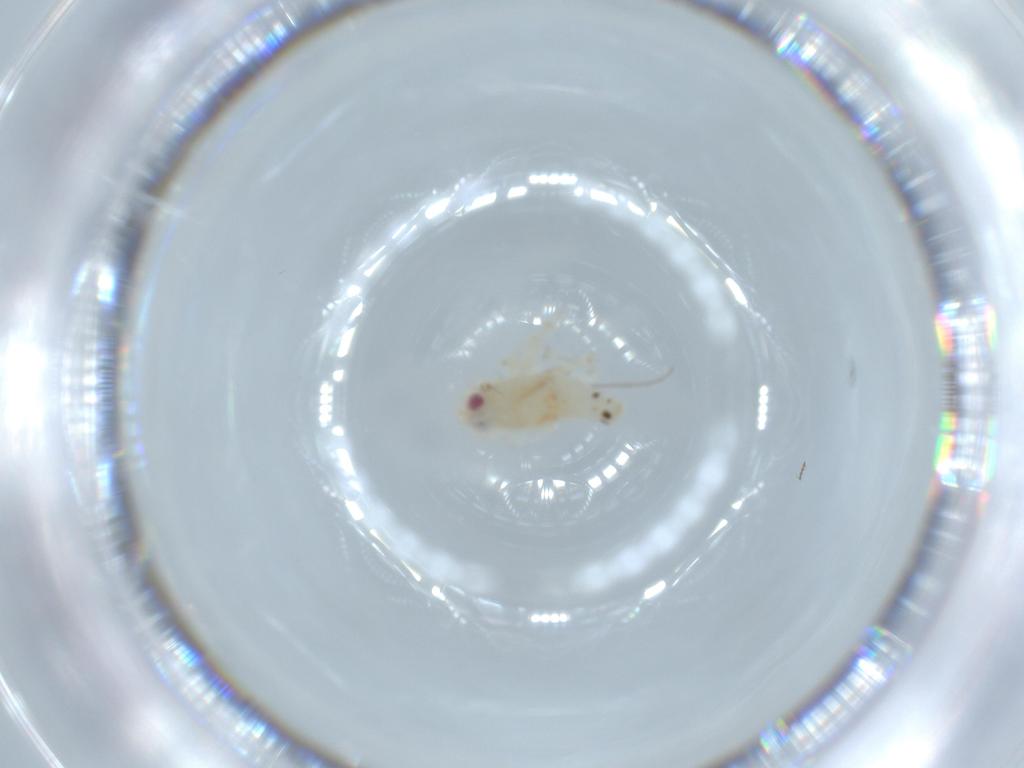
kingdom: Animalia
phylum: Arthropoda
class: Insecta
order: Hemiptera
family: Nogodinidae
